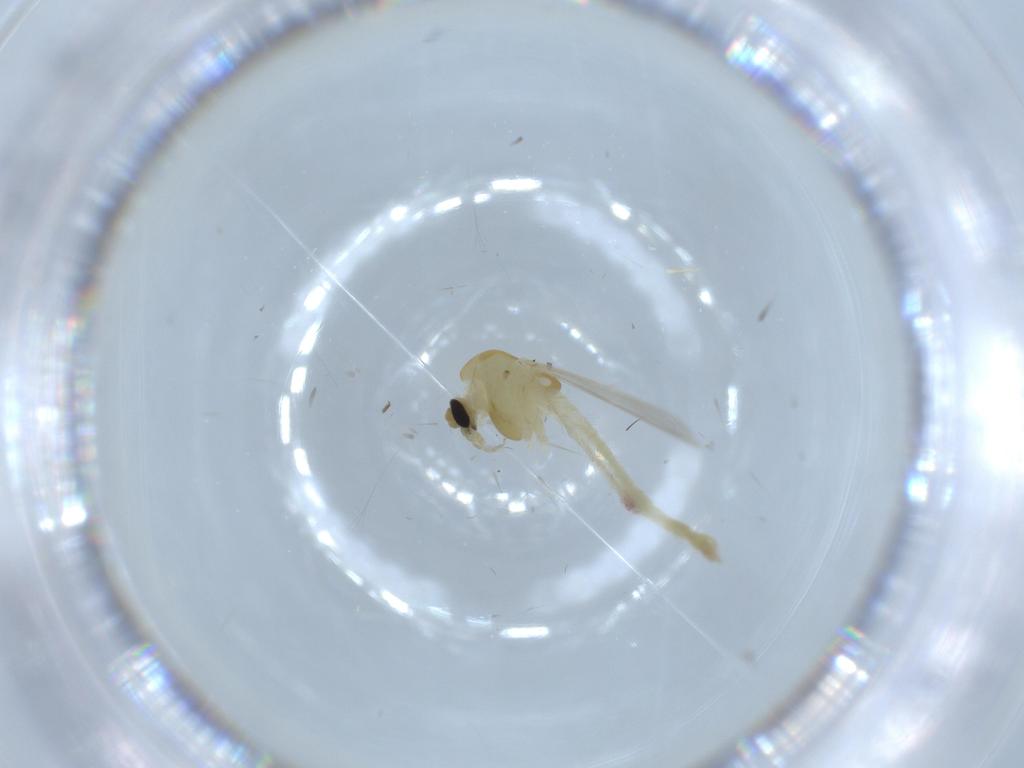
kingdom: Animalia
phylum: Arthropoda
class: Insecta
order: Diptera
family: Chironomidae
